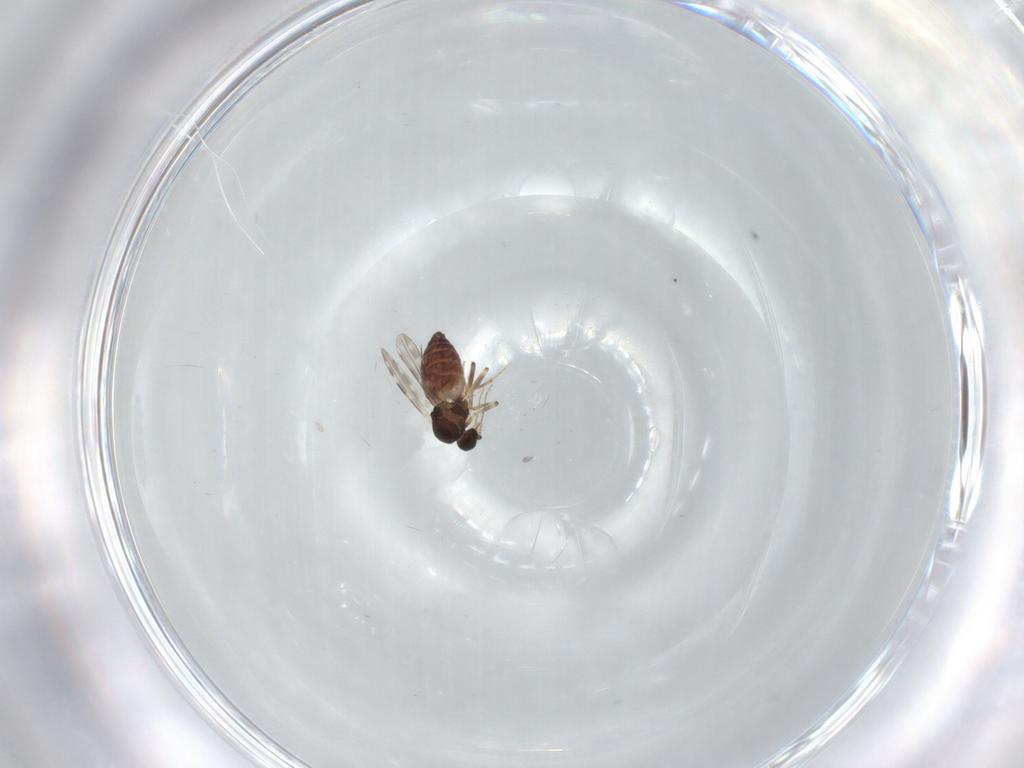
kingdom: Animalia
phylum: Arthropoda
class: Insecta
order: Diptera
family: Ceratopogonidae
